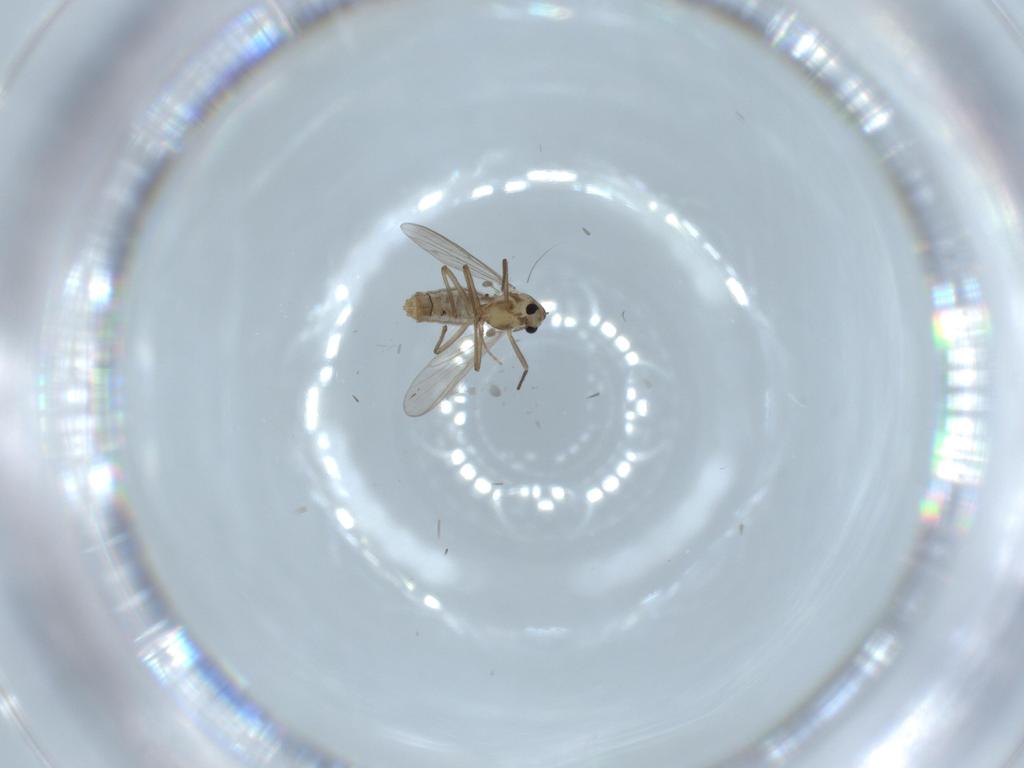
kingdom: Animalia
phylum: Arthropoda
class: Insecta
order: Diptera
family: Chironomidae
